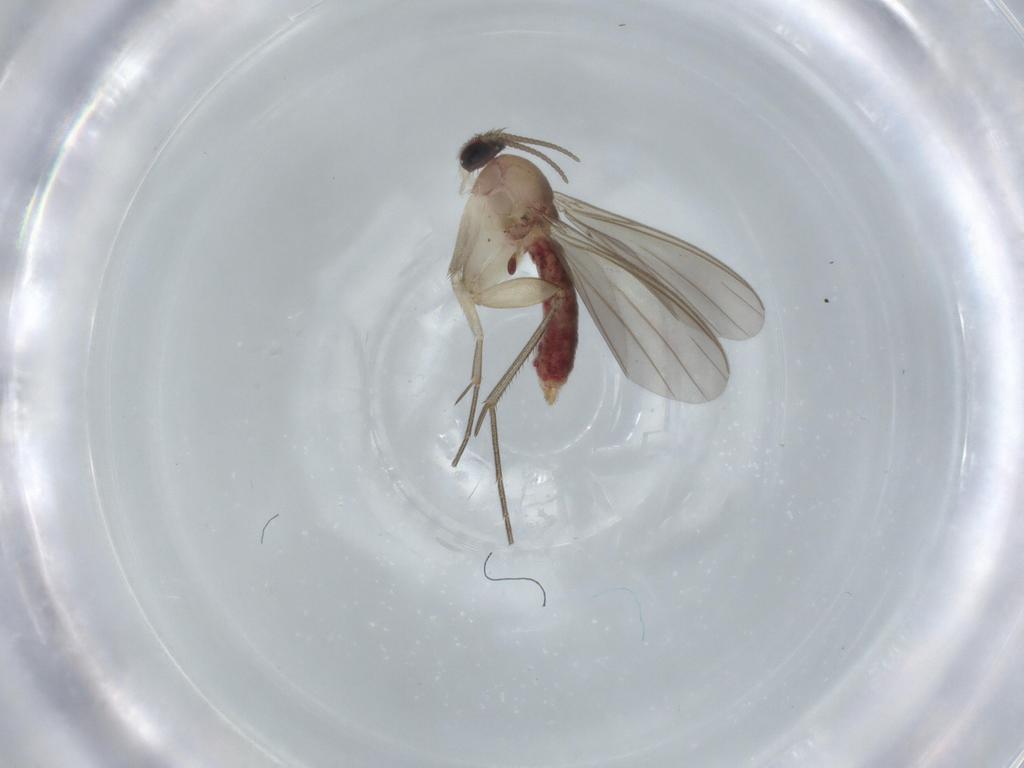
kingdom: Animalia
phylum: Arthropoda
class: Insecta
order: Diptera
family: Mycetophilidae
